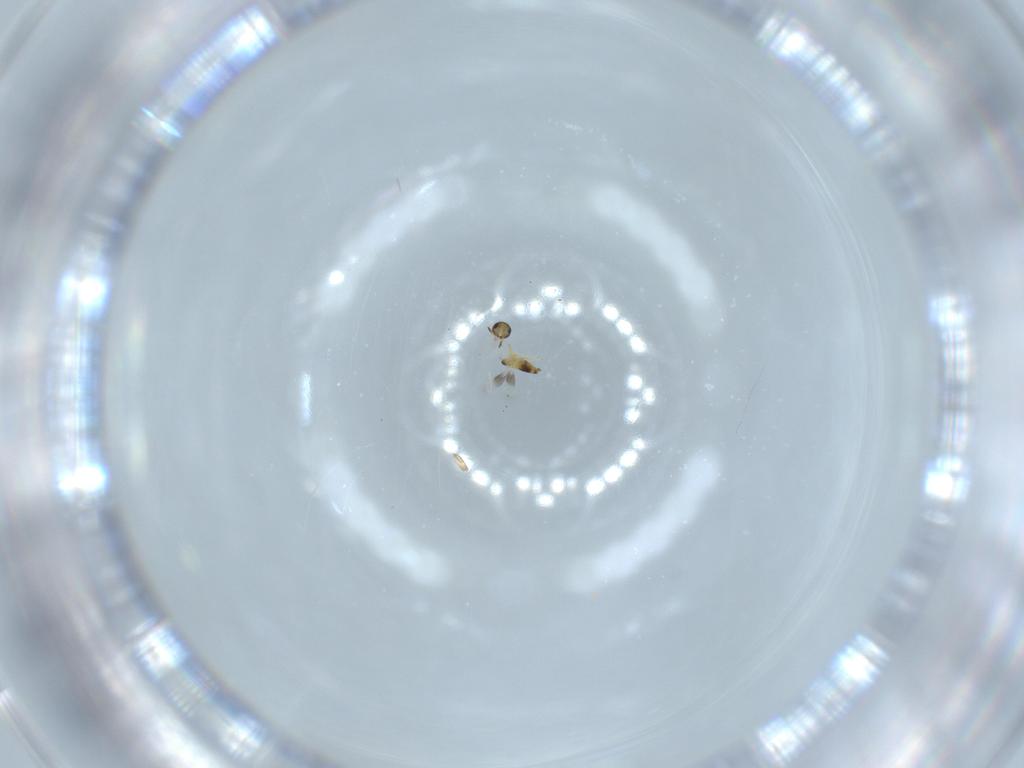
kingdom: Animalia
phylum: Arthropoda
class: Insecta
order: Hymenoptera
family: Signiphoridae
